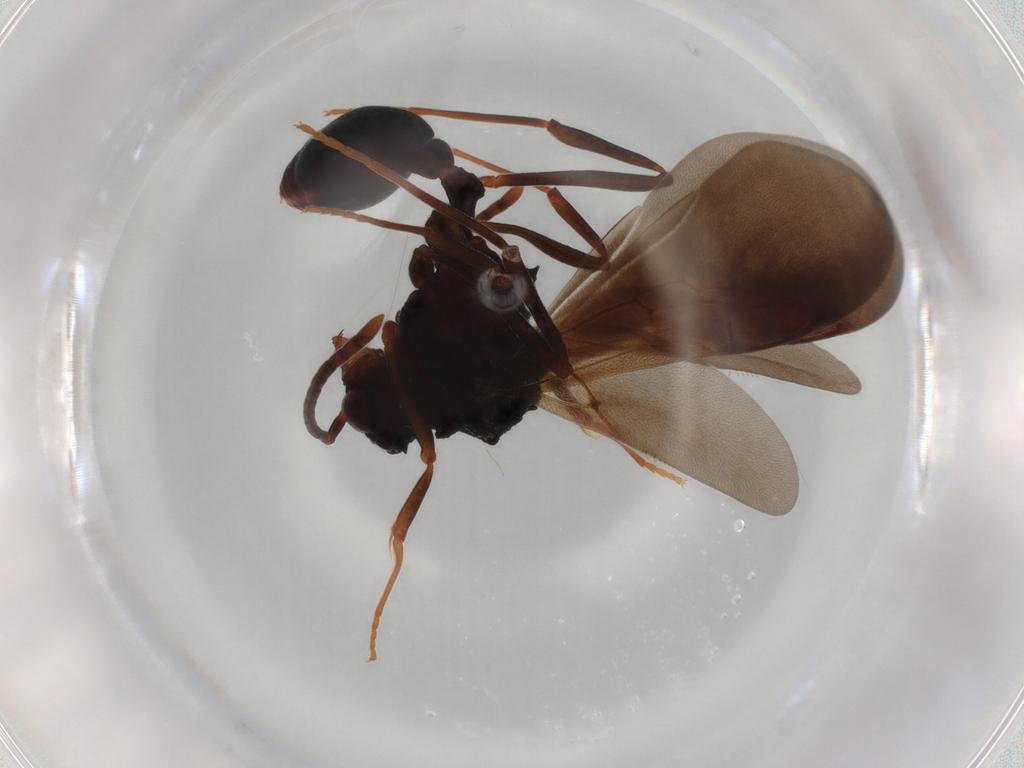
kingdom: Animalia
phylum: Arthropoda
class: Insecta
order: Hymenoptera
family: Formicidae
